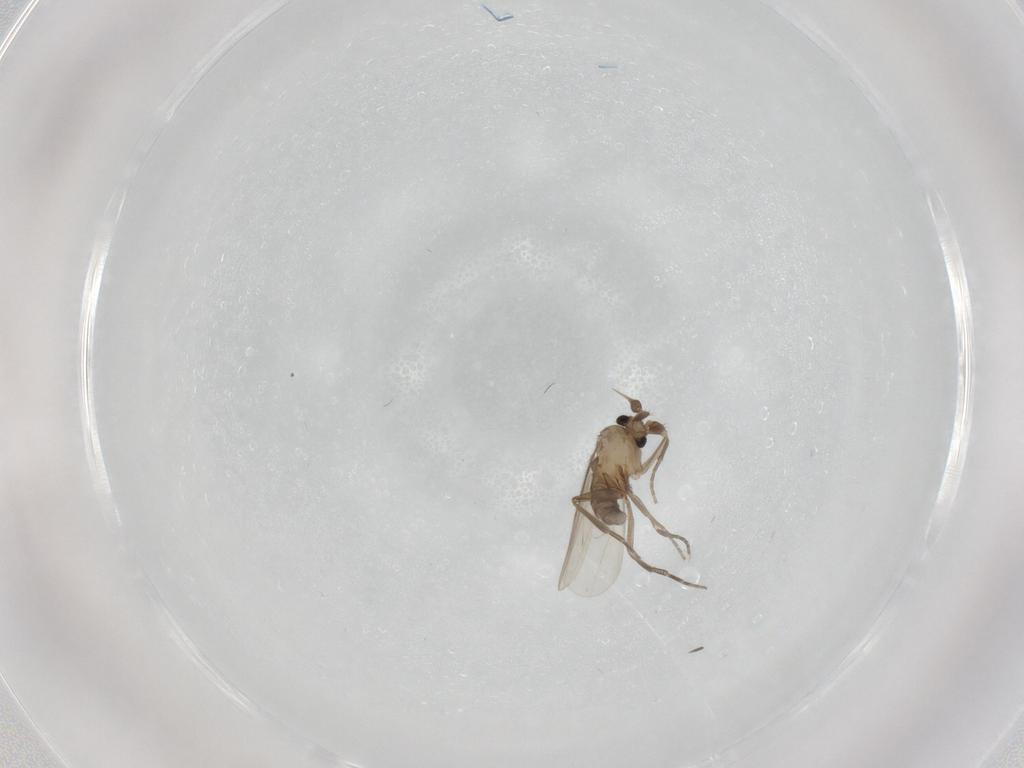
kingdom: Animalia
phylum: Arthropoda
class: Insecta
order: Diptera
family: Phoridae
